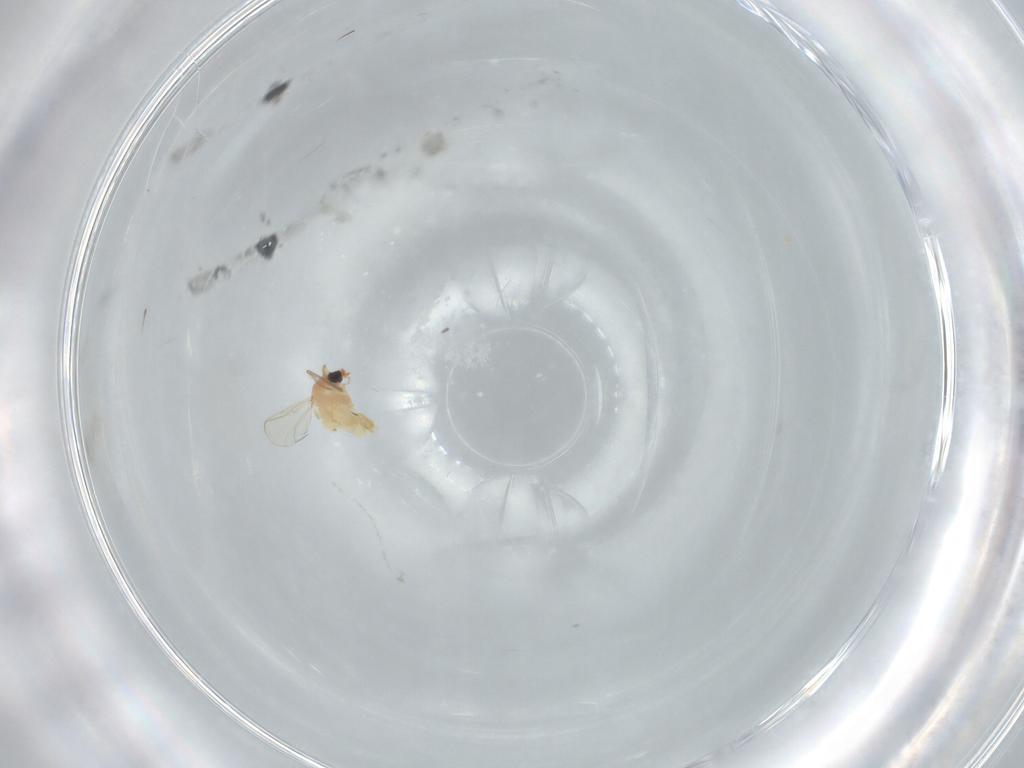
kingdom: Animalia
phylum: Arthropoda
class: Insecta
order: Diptera
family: Chironomidae
